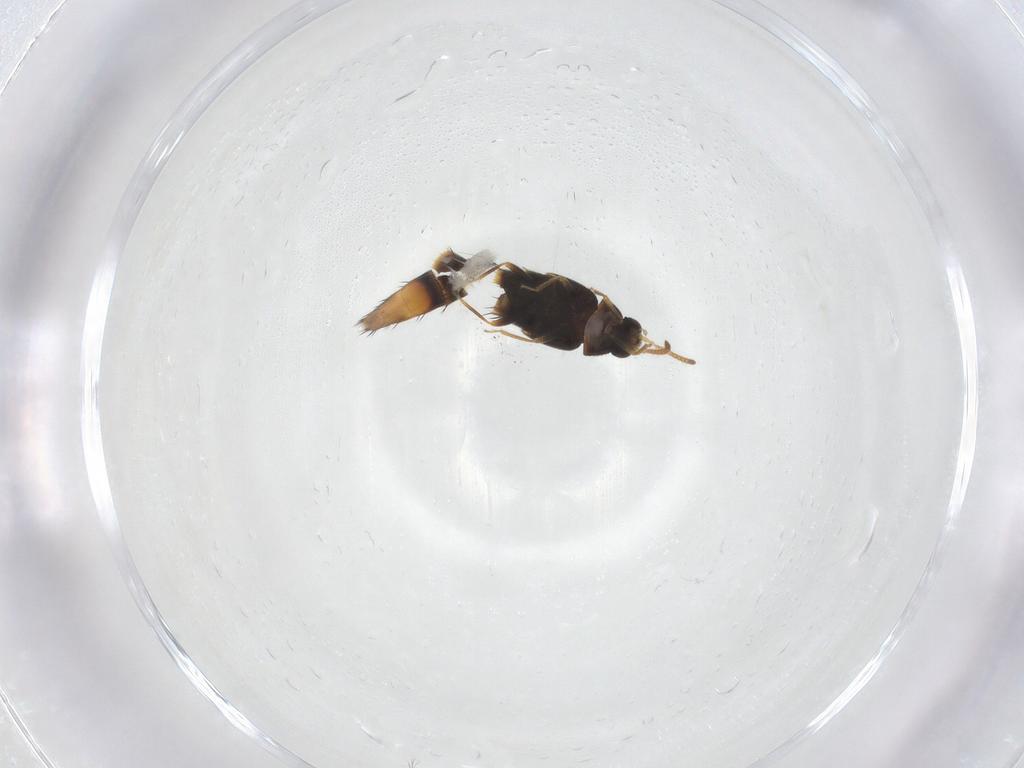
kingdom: Animalia
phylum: Arthropoda
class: Insecta
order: Coleoptera
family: Staphylinidae
